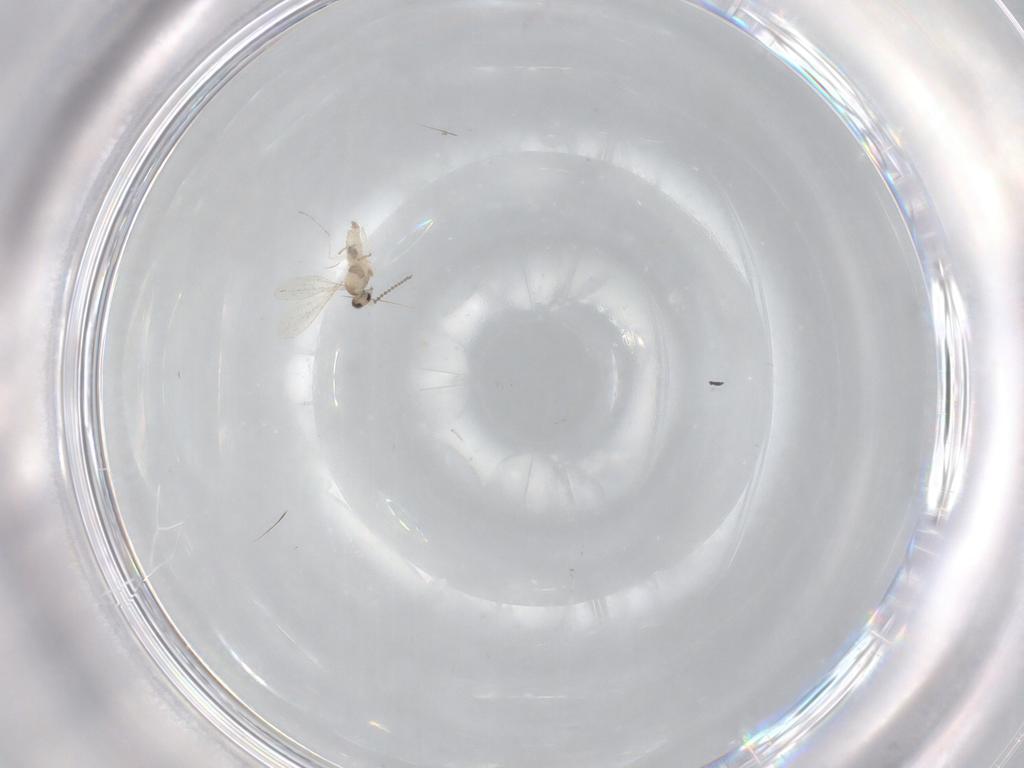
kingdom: Animalia
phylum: Arthropoda
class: Insecta
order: Diptera
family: Cecidomyiidae
